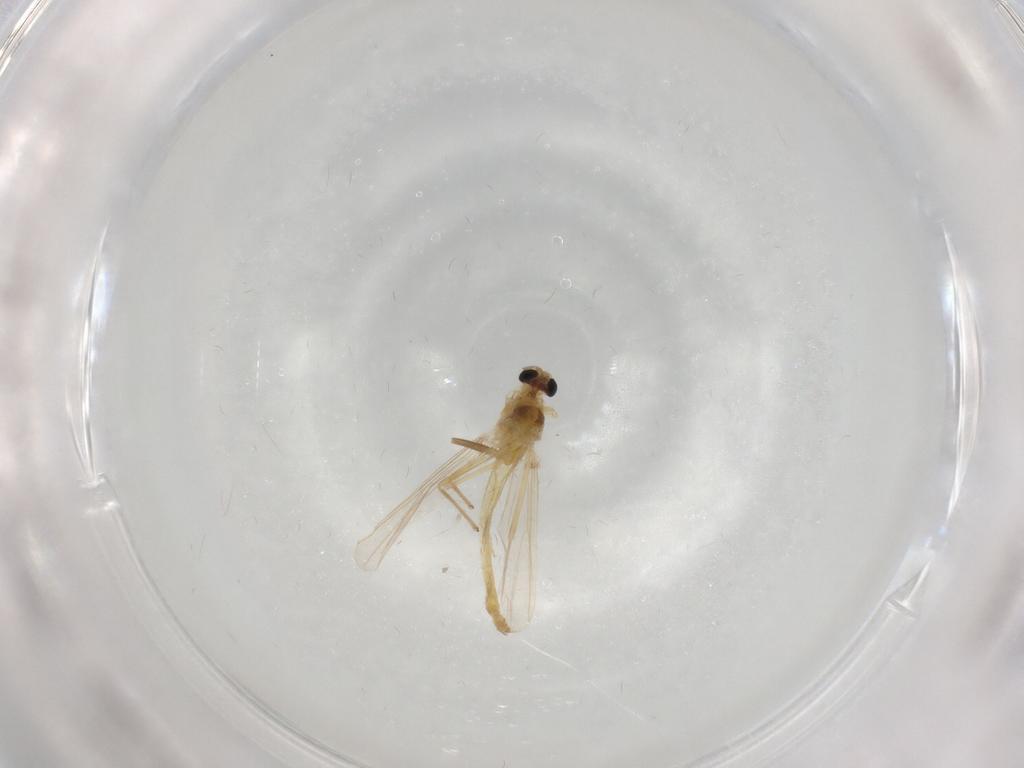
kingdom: Animalia
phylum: Arthropoda
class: Insecta
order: Diptera
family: Chironomidae
